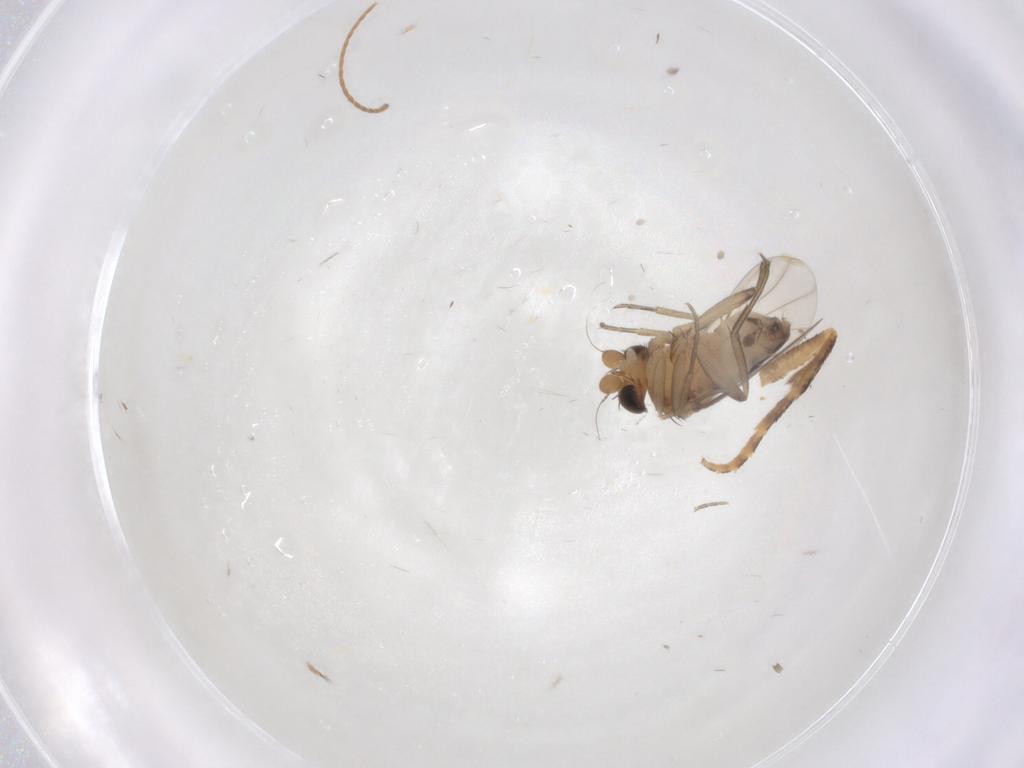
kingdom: Animalia
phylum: Arthropoda
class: Insecta
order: Diptera
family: Phoridae
